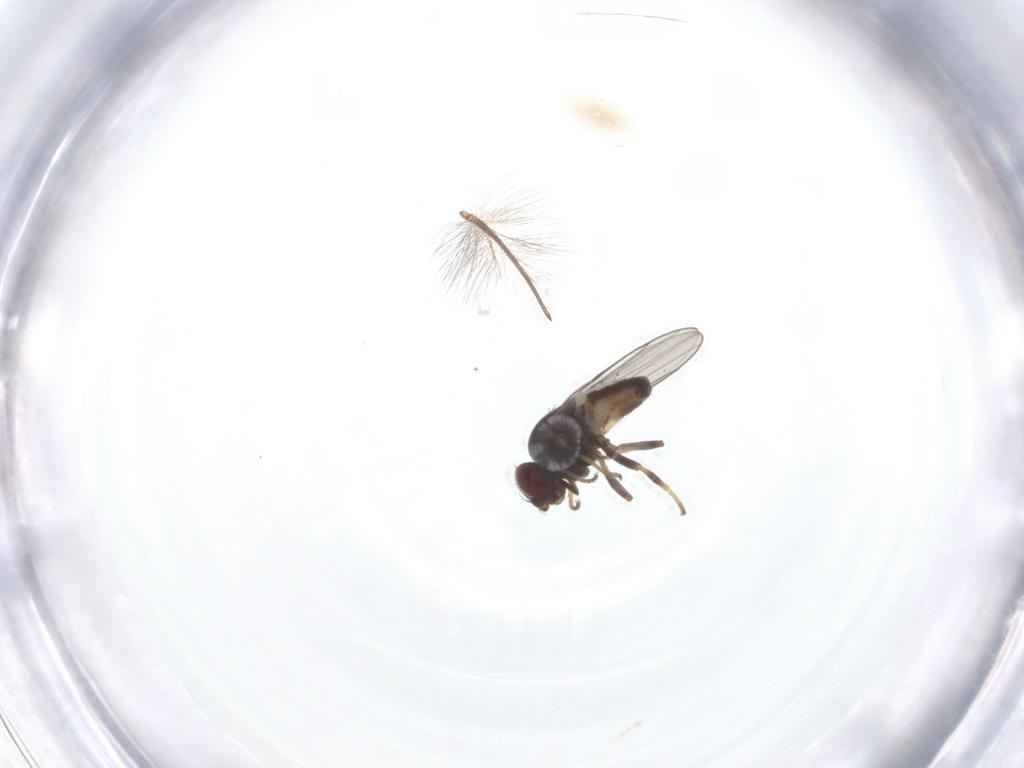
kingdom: Animalia
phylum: Arthropoda
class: Insecta
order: Diptera
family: Chloropidae
